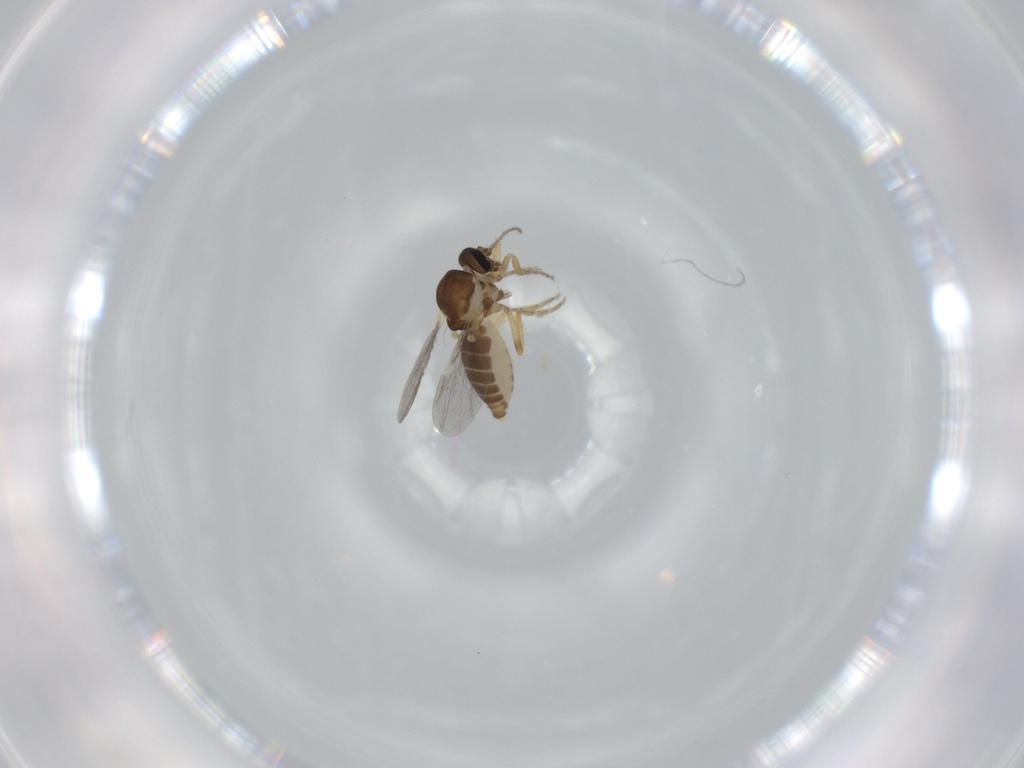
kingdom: Animalia
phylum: Arthropoda
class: Insecta
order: Diptera
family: Ceratopogonidae
